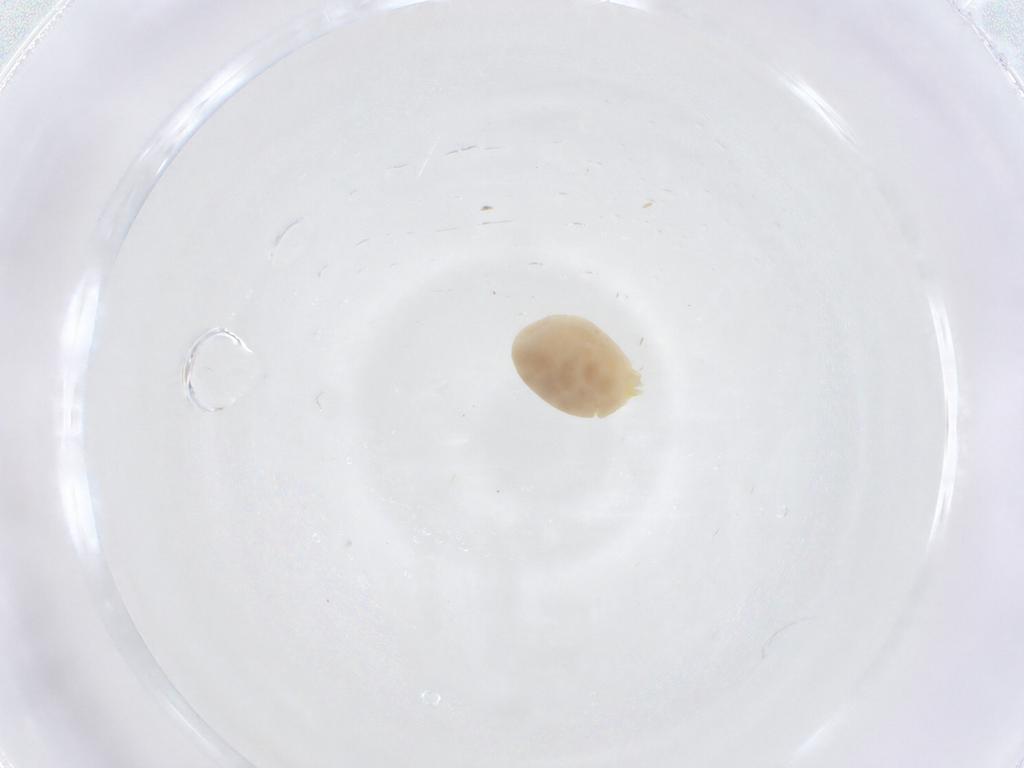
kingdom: Animalia
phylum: Arthropoda
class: Arachnida
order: Araneae
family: Anyphaenidae
